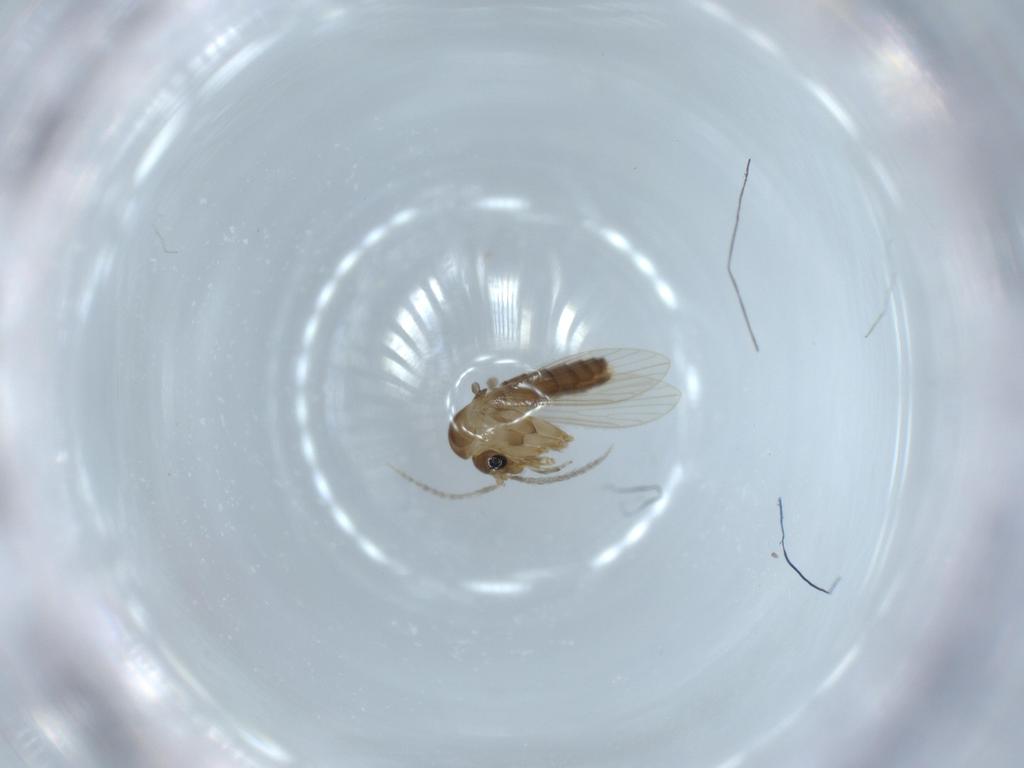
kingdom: Animalia
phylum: Arthropoda
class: Insecta
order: Diptera
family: Psychodidae
